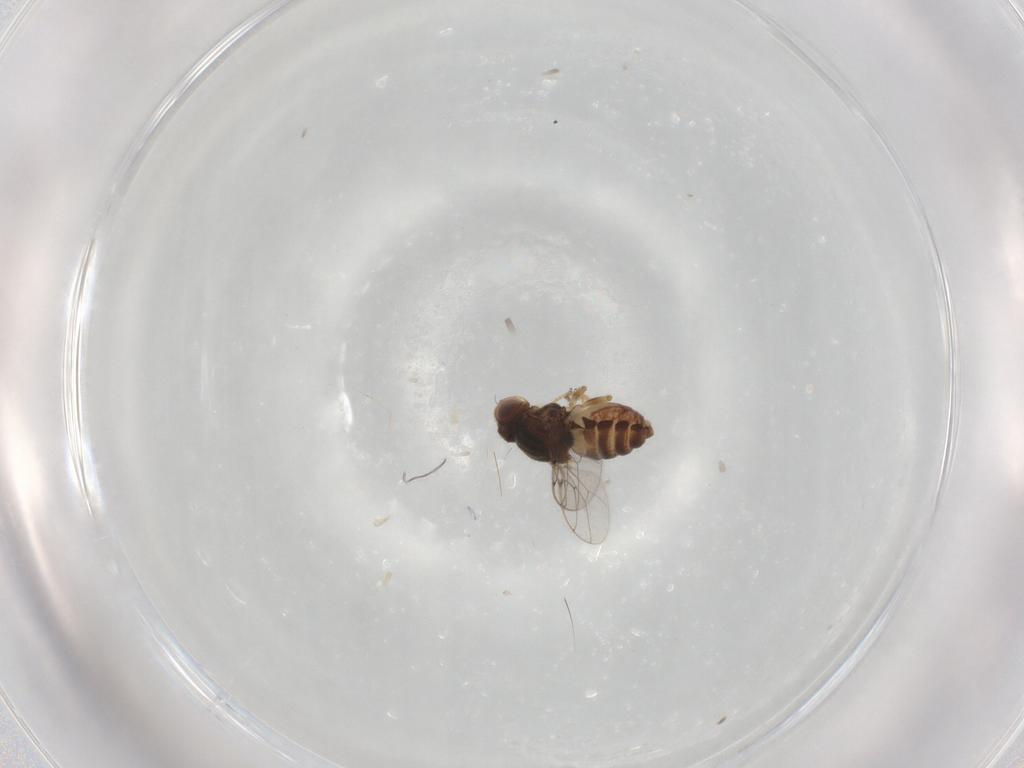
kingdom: Animalia
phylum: Arthropoda
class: Insecta
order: Diptera
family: Chloropidae
